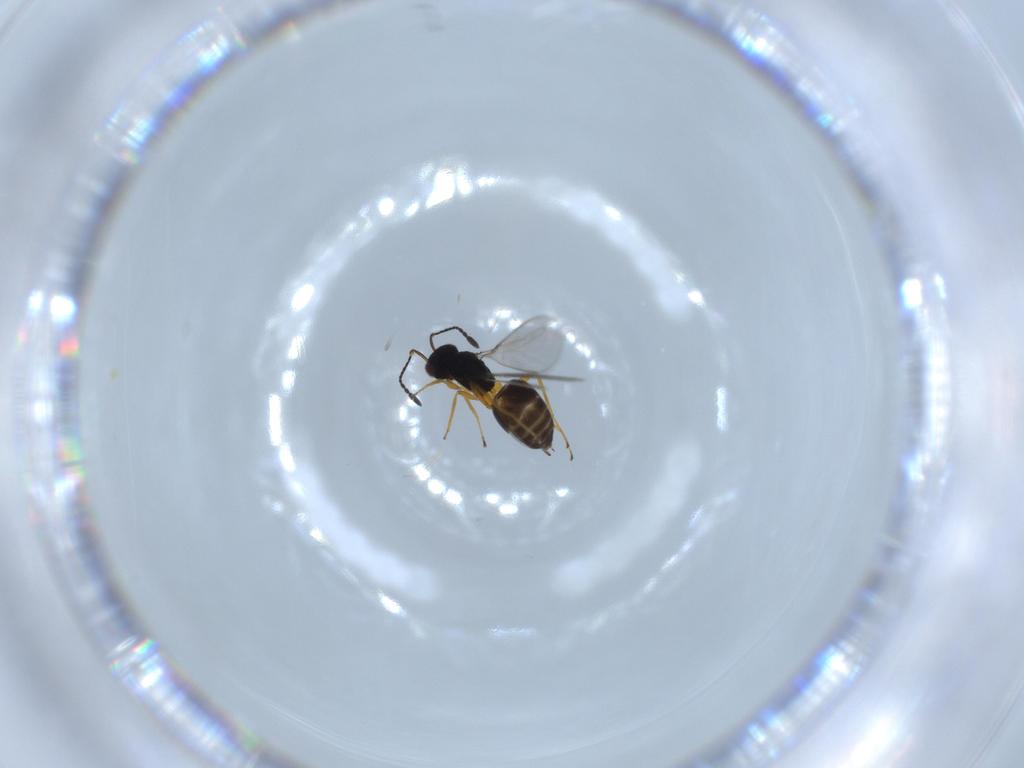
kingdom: Animalia
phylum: Arthropoda
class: Insecta
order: Hymenoptera
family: Mymaridae
